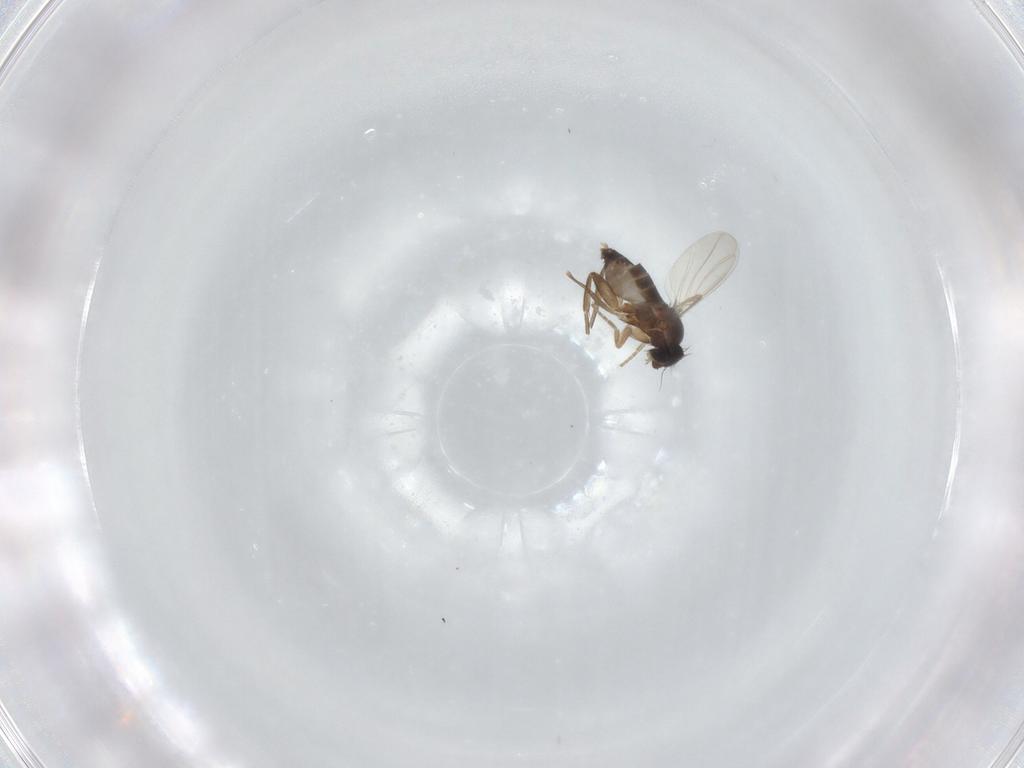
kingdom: Animalia
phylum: Arthropoda
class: Insecta
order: Diptera
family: Phoridae
